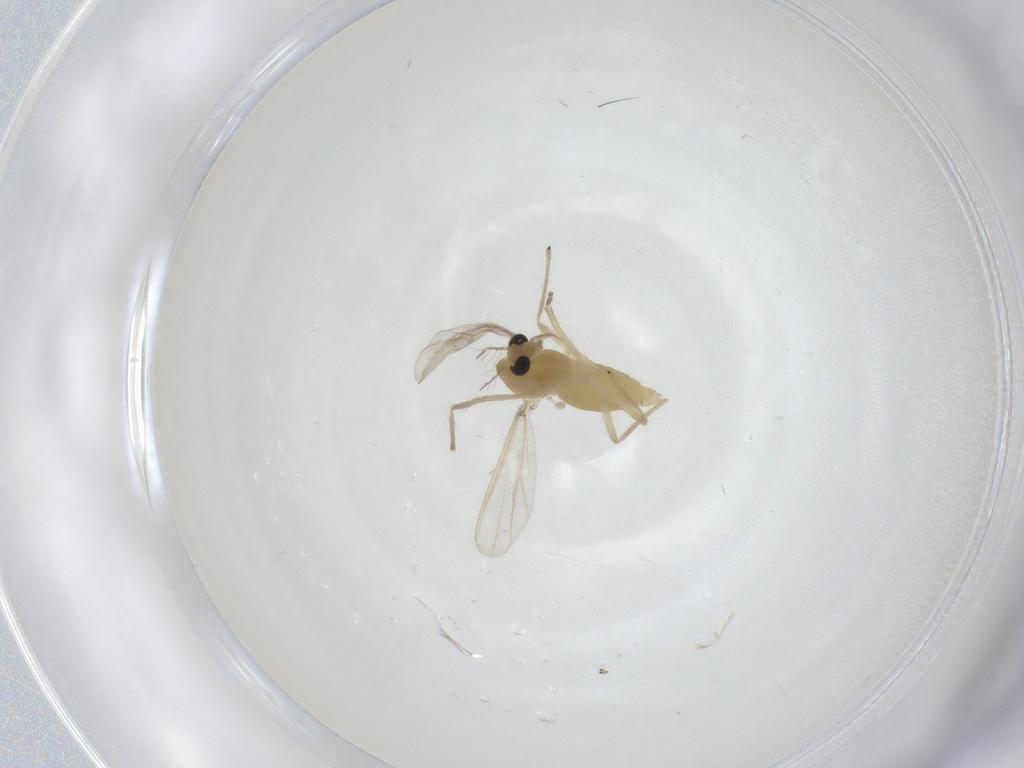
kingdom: Animalia
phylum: Arthropoda
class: Insecta
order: Diptera
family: Chironomidae
